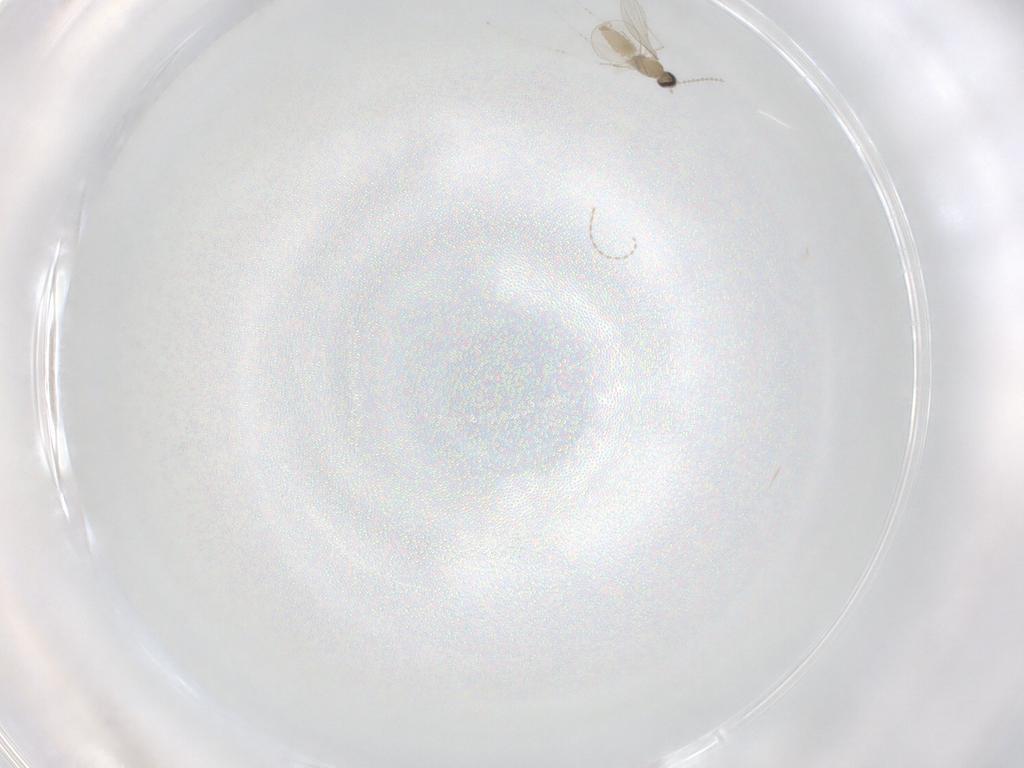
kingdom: Animalia
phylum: Arthropoda
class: Insecta
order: Diptera
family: Cecidomyiidae
